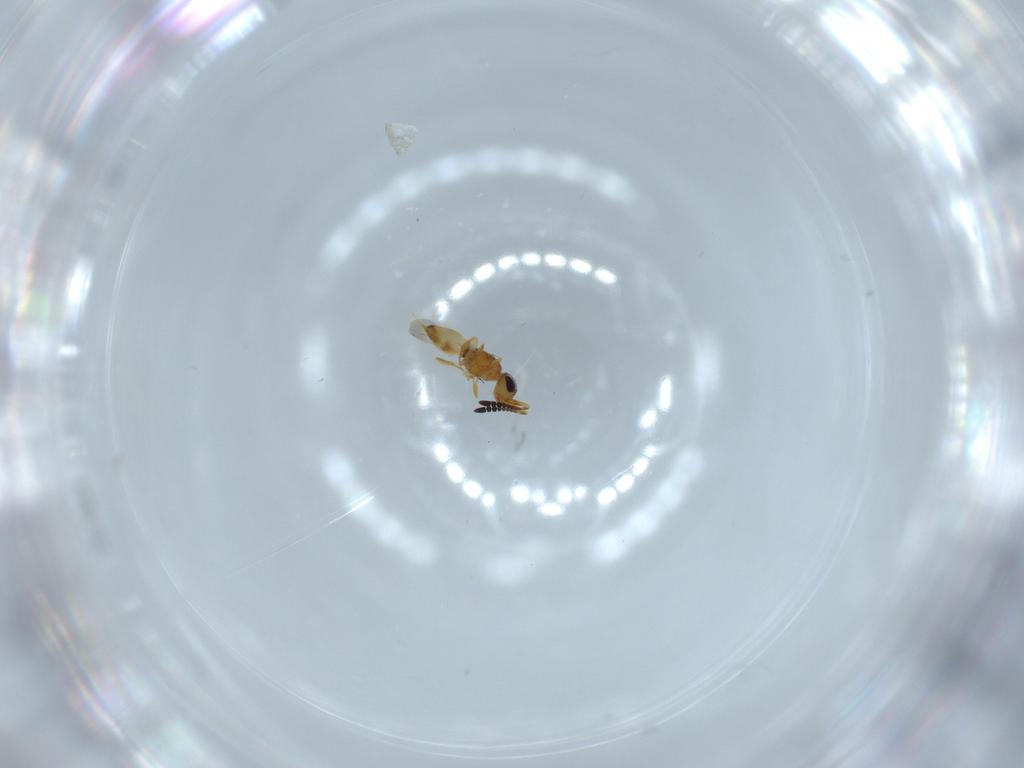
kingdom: Animalia
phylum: Arthropoda
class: Insecta
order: Hymenoptera
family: Ceraphronidae
